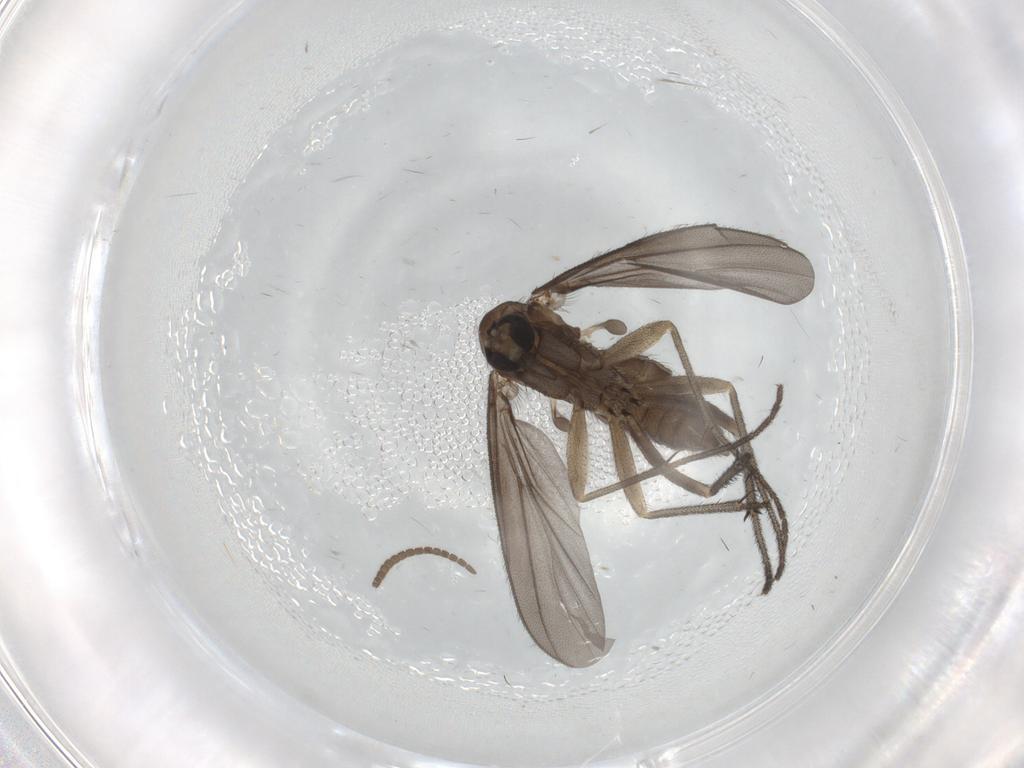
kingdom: Animalia
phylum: Arthropoda
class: Insecta
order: Diptera
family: Diadocidiidae
